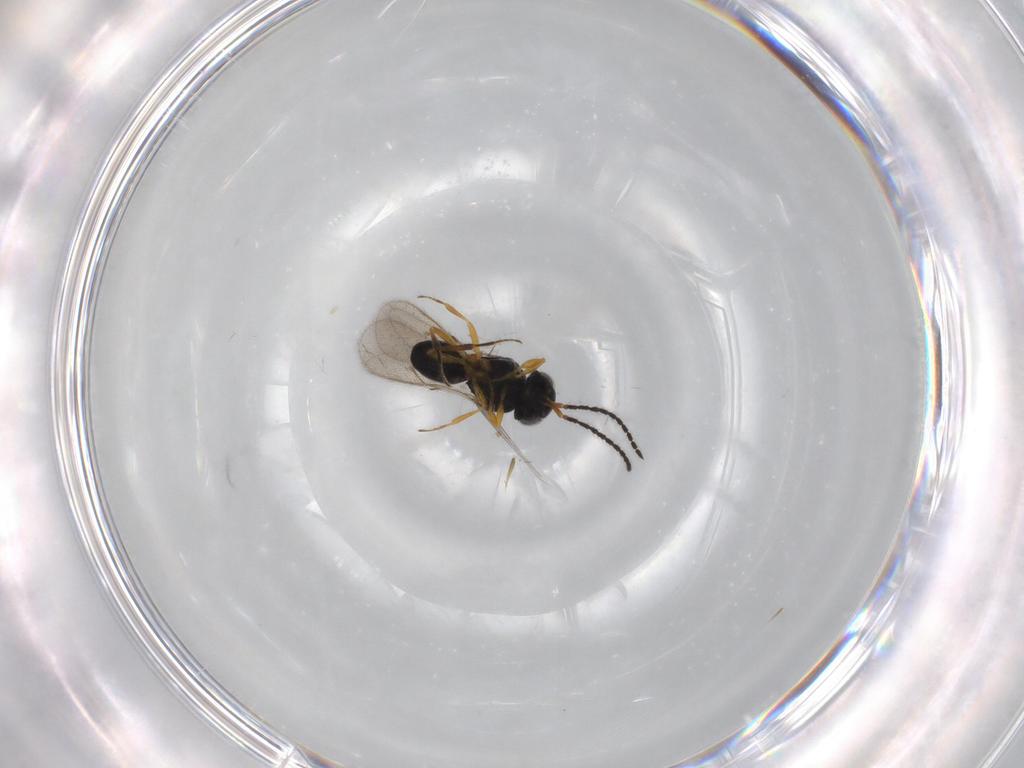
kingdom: Animalia
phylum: Arthropoda
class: Insecta
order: Hymenoptera
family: Scelionidae
